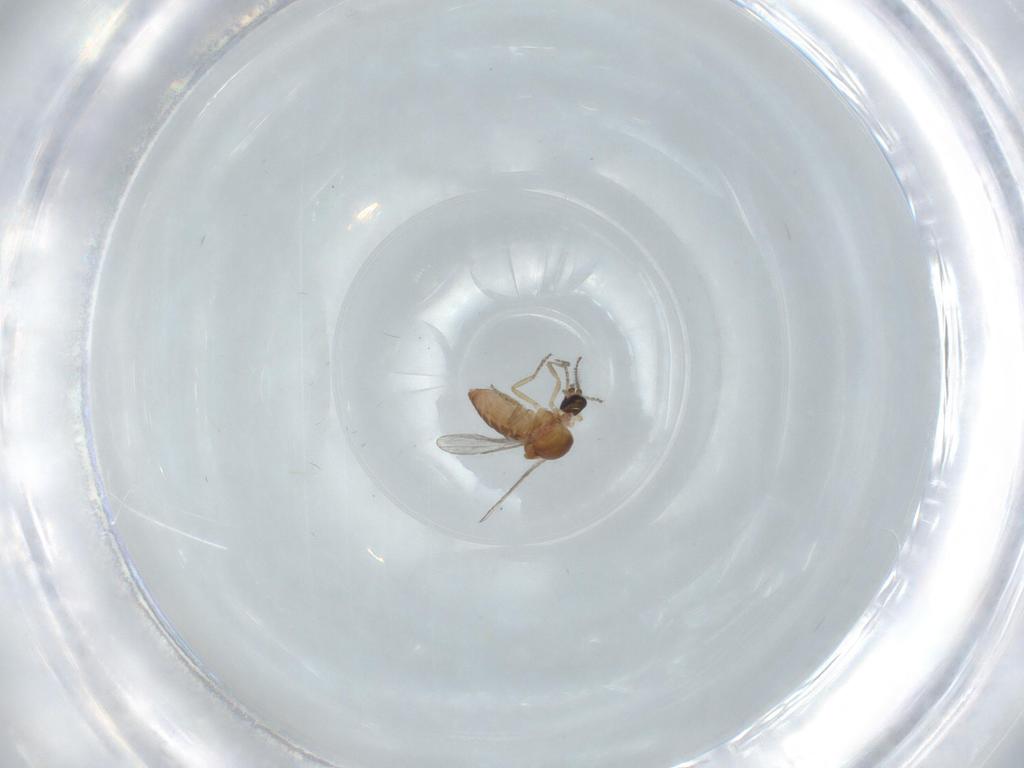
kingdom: Animalia
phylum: Arthropoda
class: Insecta
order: Diptera
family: Ceratopogonidae
